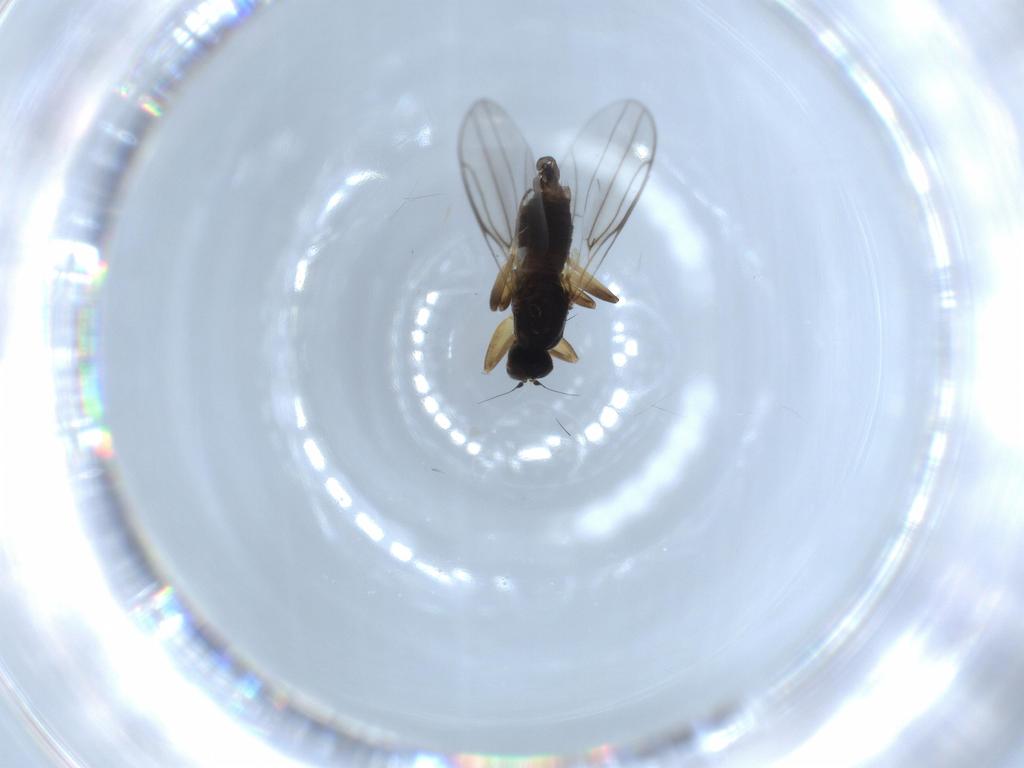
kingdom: Animalia
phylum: Arthropoda
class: Insecta
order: Diptera
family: Hybotidae
